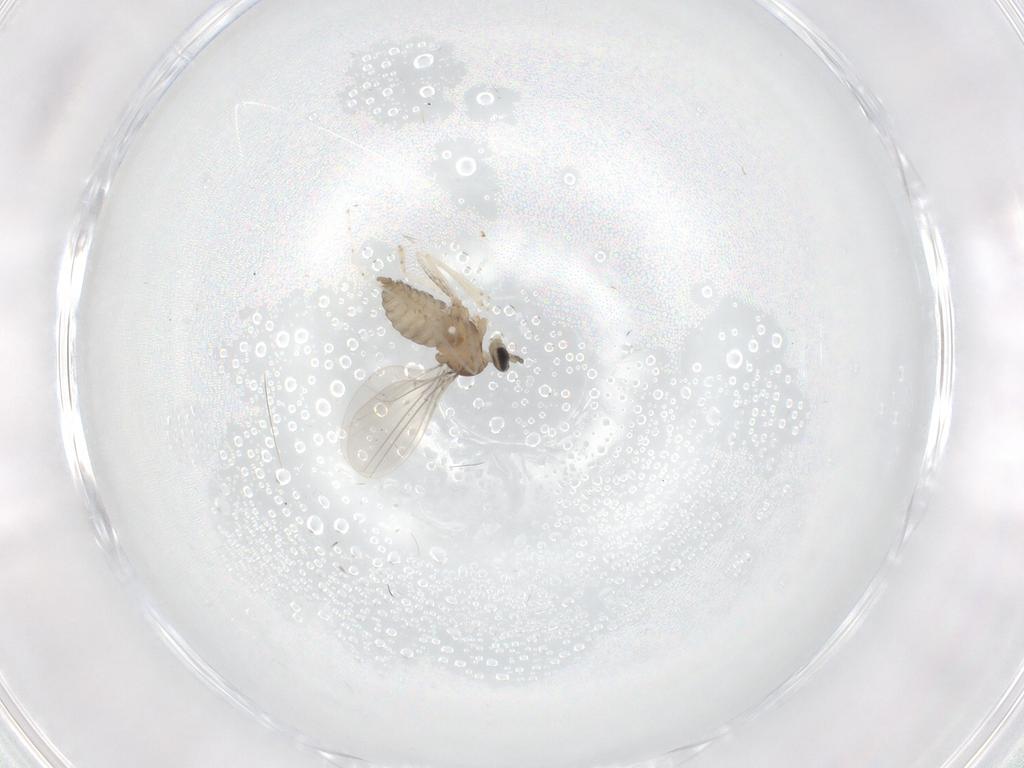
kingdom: Animalia
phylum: Arthropoda
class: Insecta
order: Diptera
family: Cecidomyiidae
